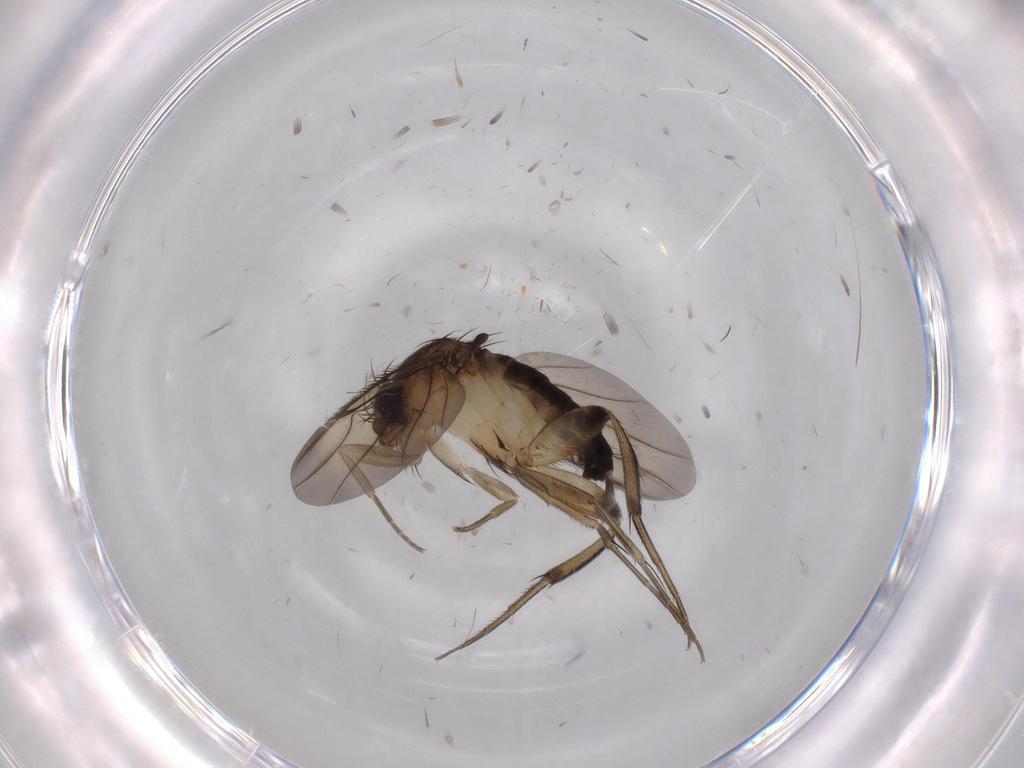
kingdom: Animalia
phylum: Arthropoda
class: Insecta
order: Diptera
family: Phoridae
